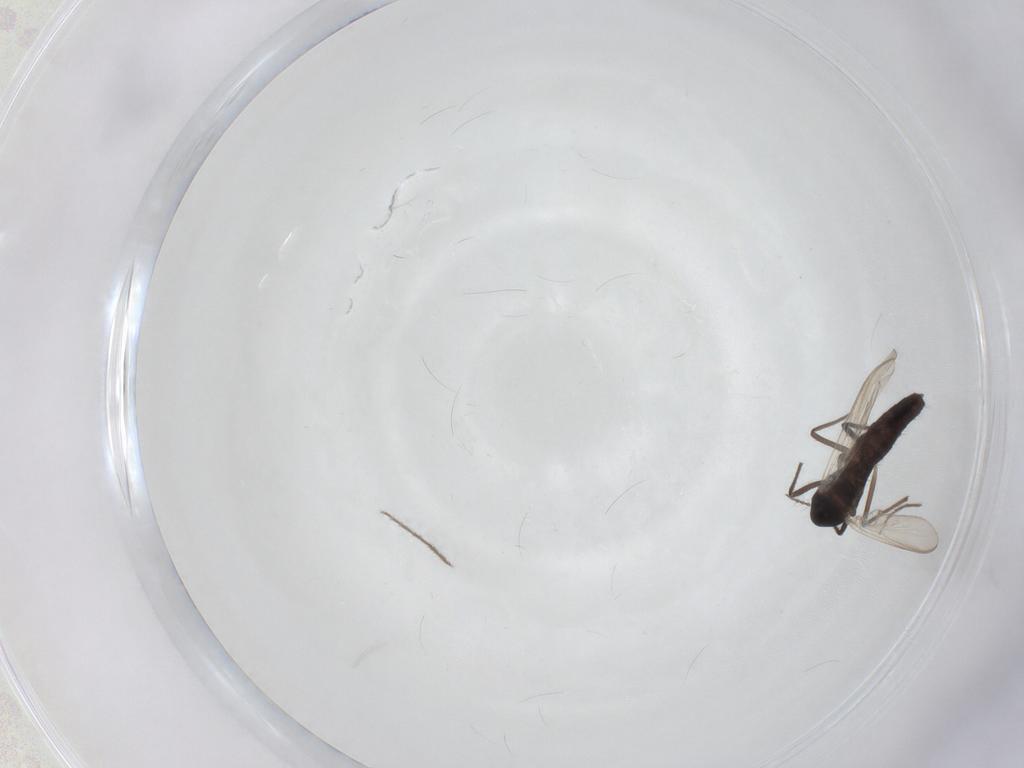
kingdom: Animalia
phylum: Arthropoda
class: Insecta
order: Diptera
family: Chironomidae
